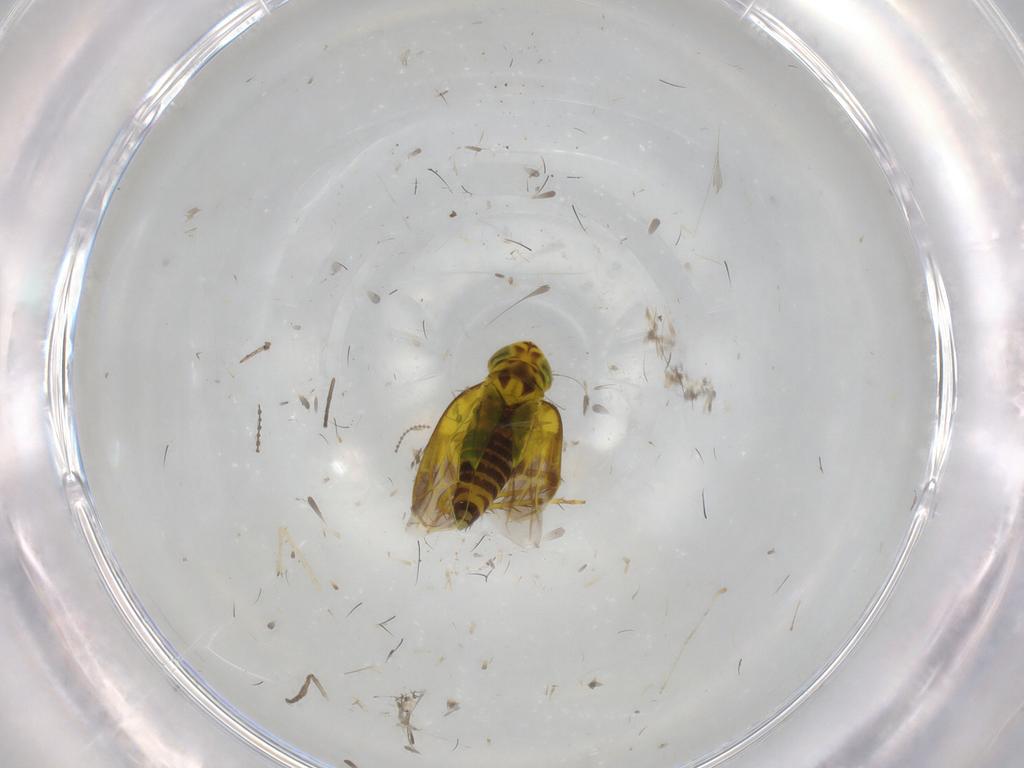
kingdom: Animalia
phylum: Arthropoda
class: Insecta
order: Hemiptera
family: Cicadellidae
